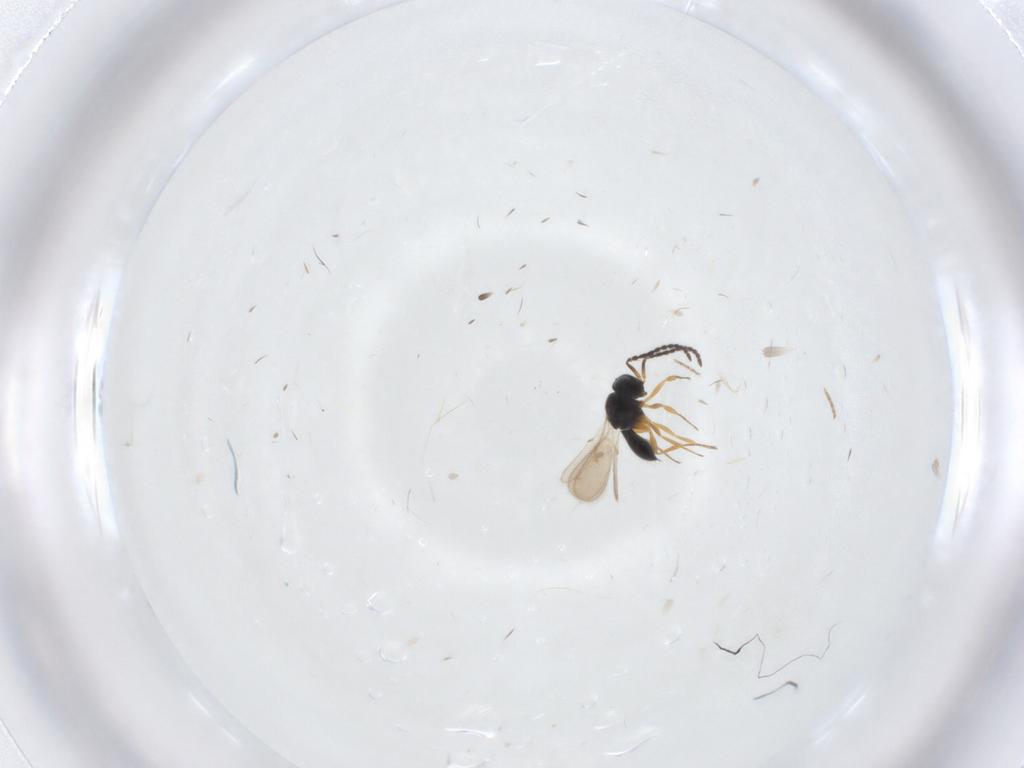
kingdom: Animalia
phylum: Arthropoda
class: Insecta
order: Hymenoptera
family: Scelionidae
